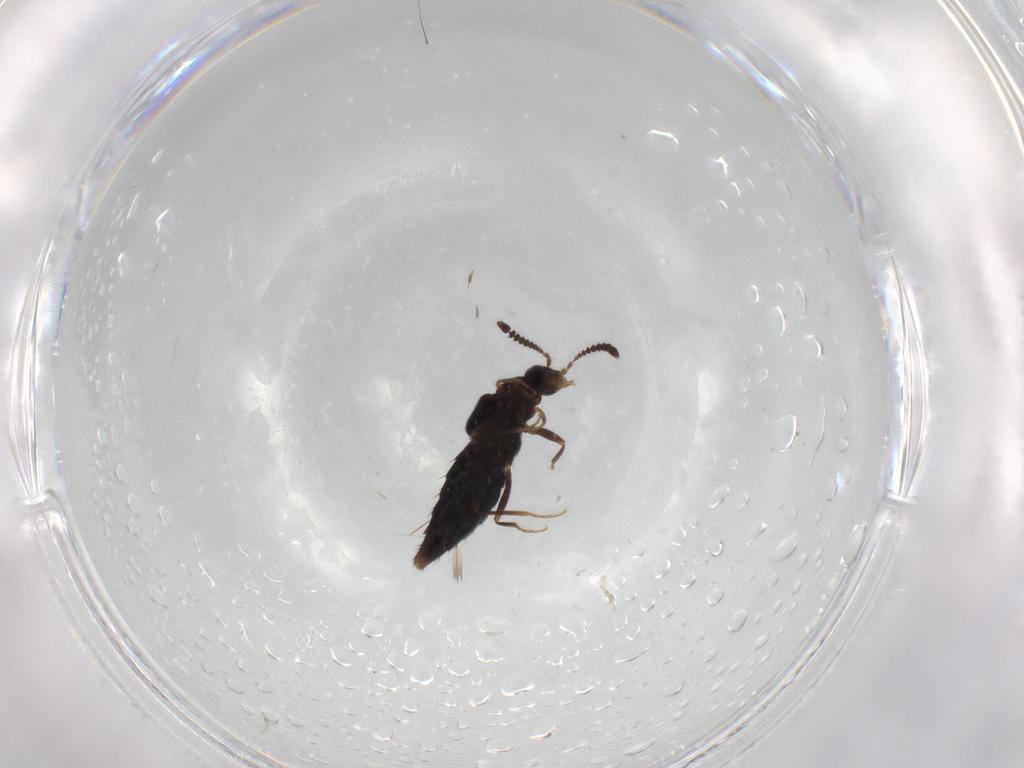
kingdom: Animalia
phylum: Arthropoda
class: Insecta
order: Coleoptera
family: Staphylinidae
